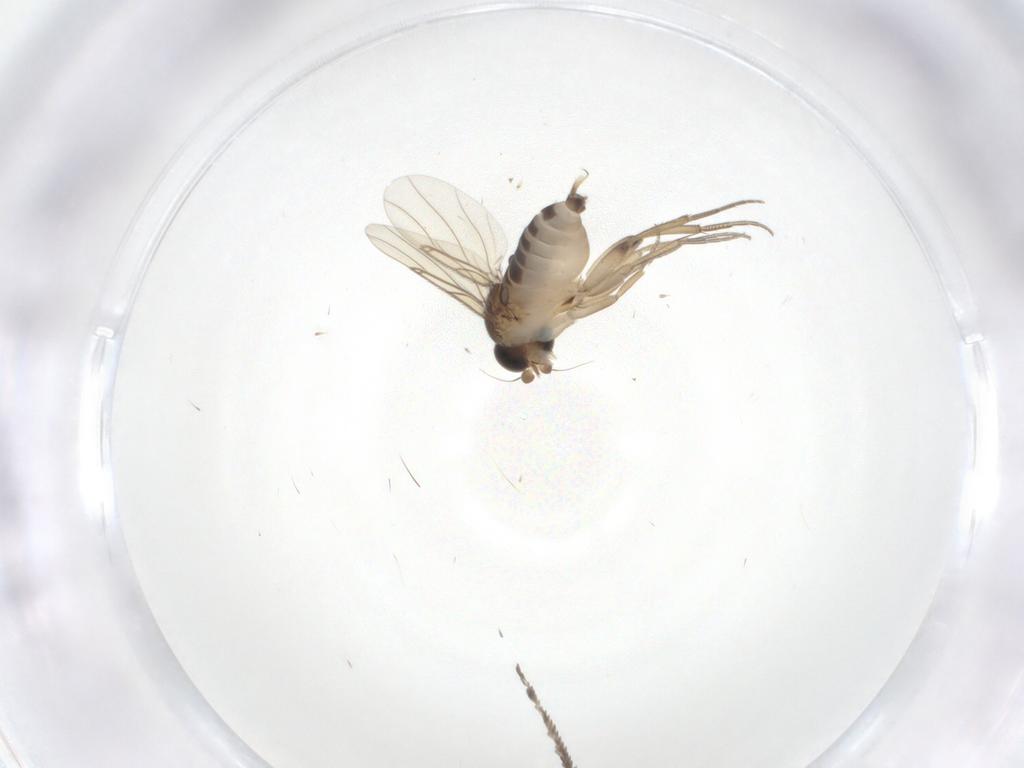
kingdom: Animalia
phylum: Arthropoda
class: Insecta
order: Diptera
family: Phoridae
